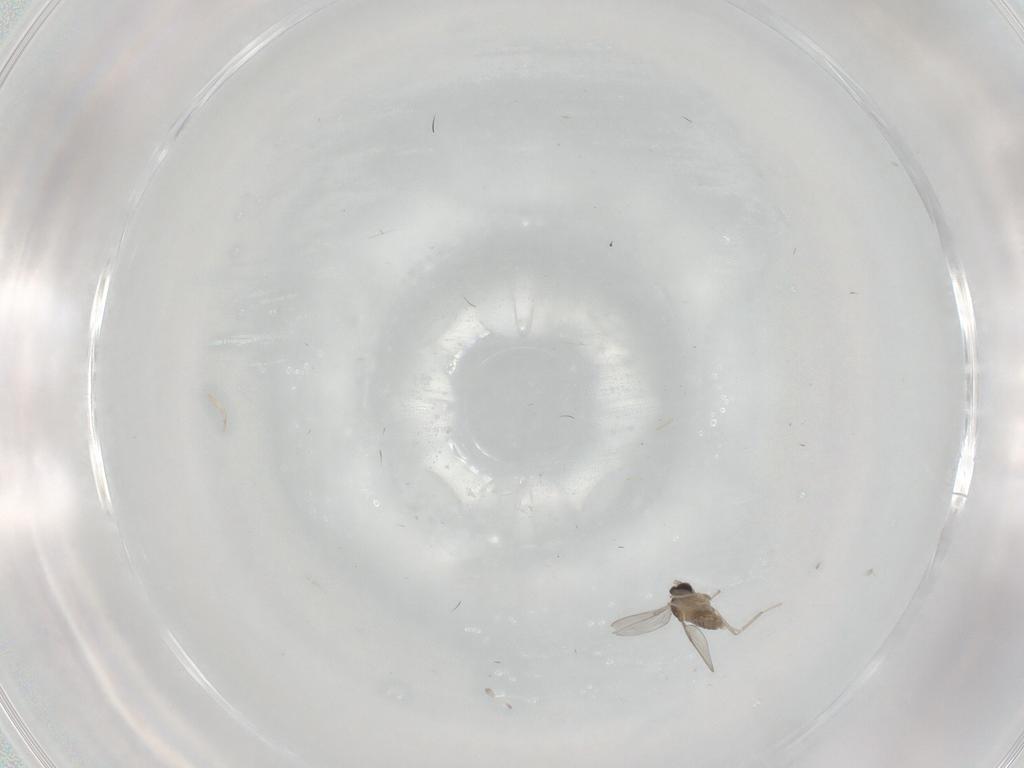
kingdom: Animalia
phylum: Arthropoda
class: Insecta
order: Diptera
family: Cecidomyiidae
